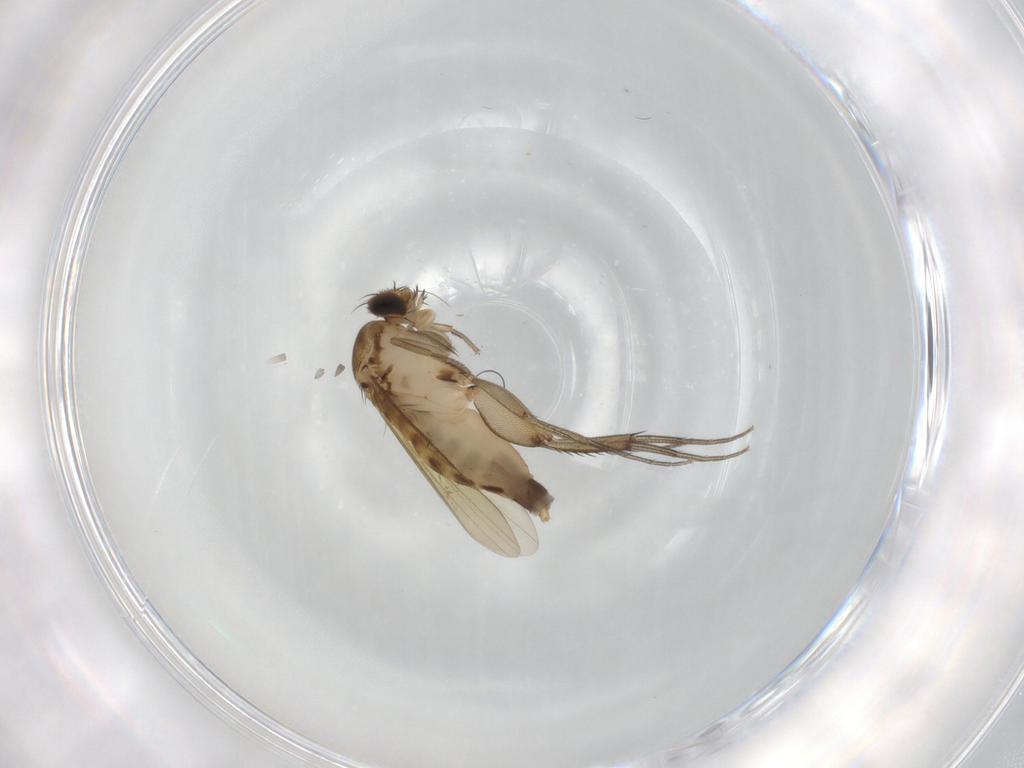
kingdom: Animalia
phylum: Arthropoda
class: Insecta
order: Diptera
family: Phoridae
